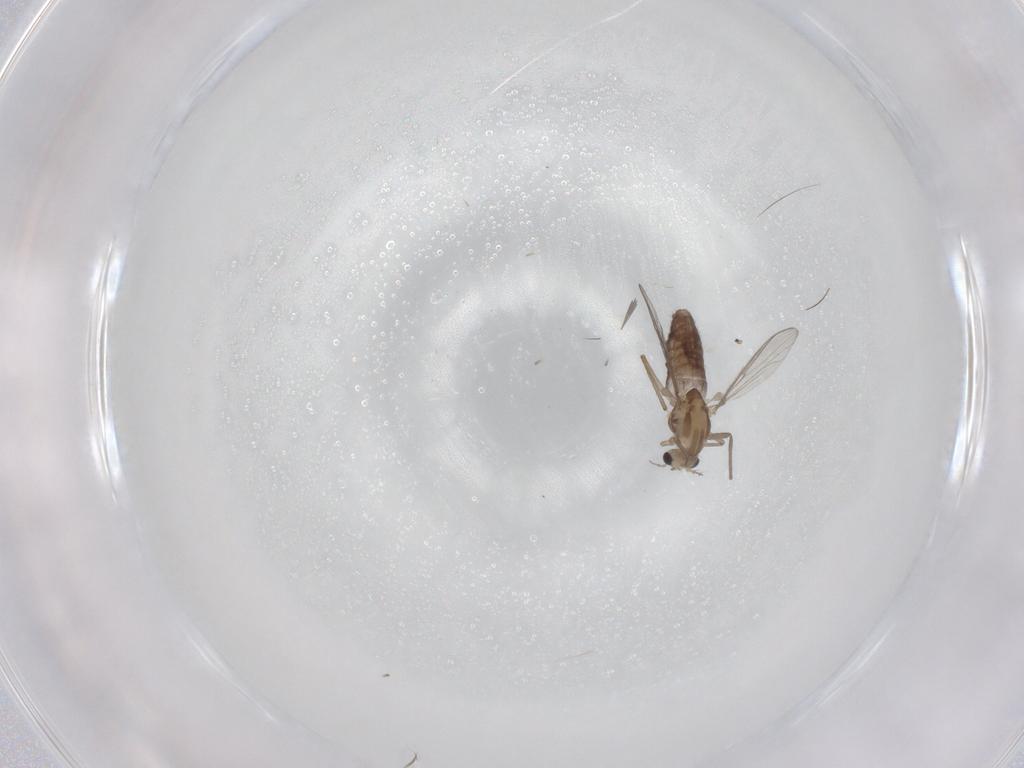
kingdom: Animalia
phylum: Arthropoda
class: Insecta
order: Diptera
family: Chironomidae
